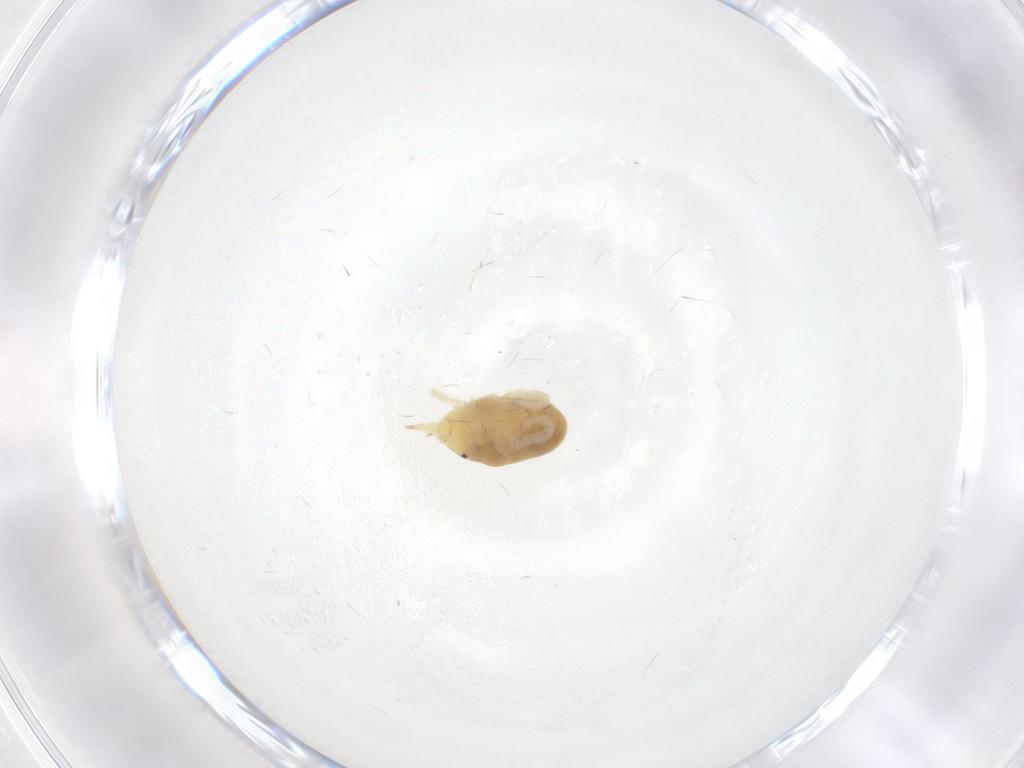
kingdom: Animalia
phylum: Arthropoda
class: Arachnida
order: Trombidiformes
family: Bdellidae
